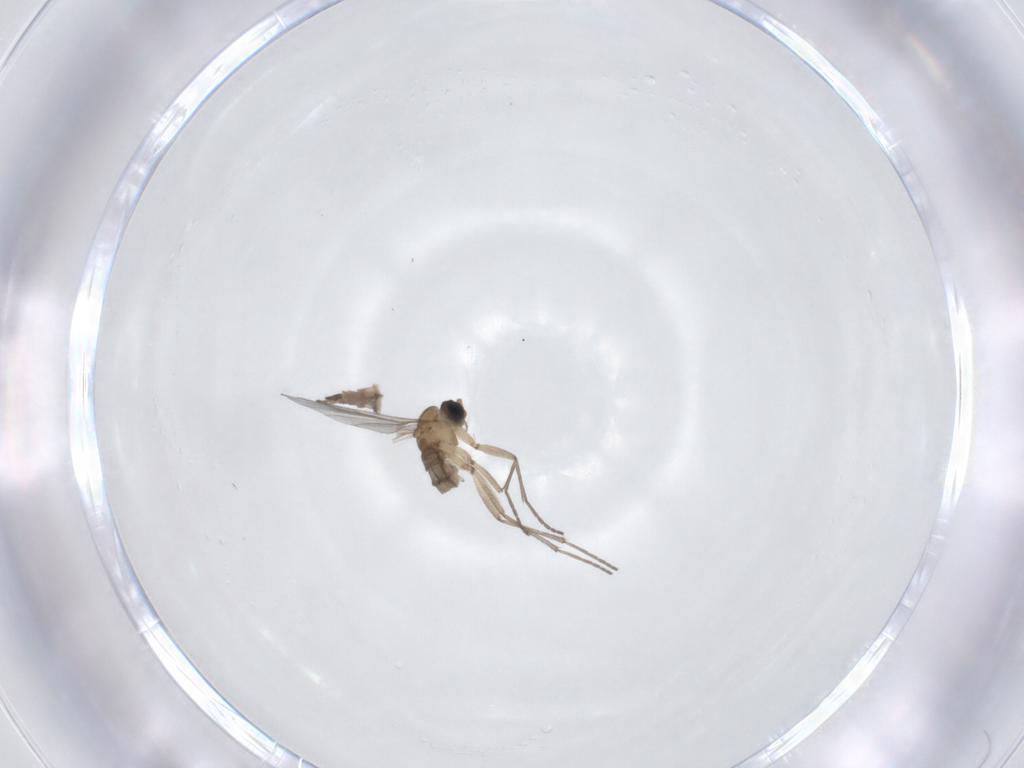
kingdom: Animalia
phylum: Arthropoda
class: Insecta
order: Diptera
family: Sciaridae
